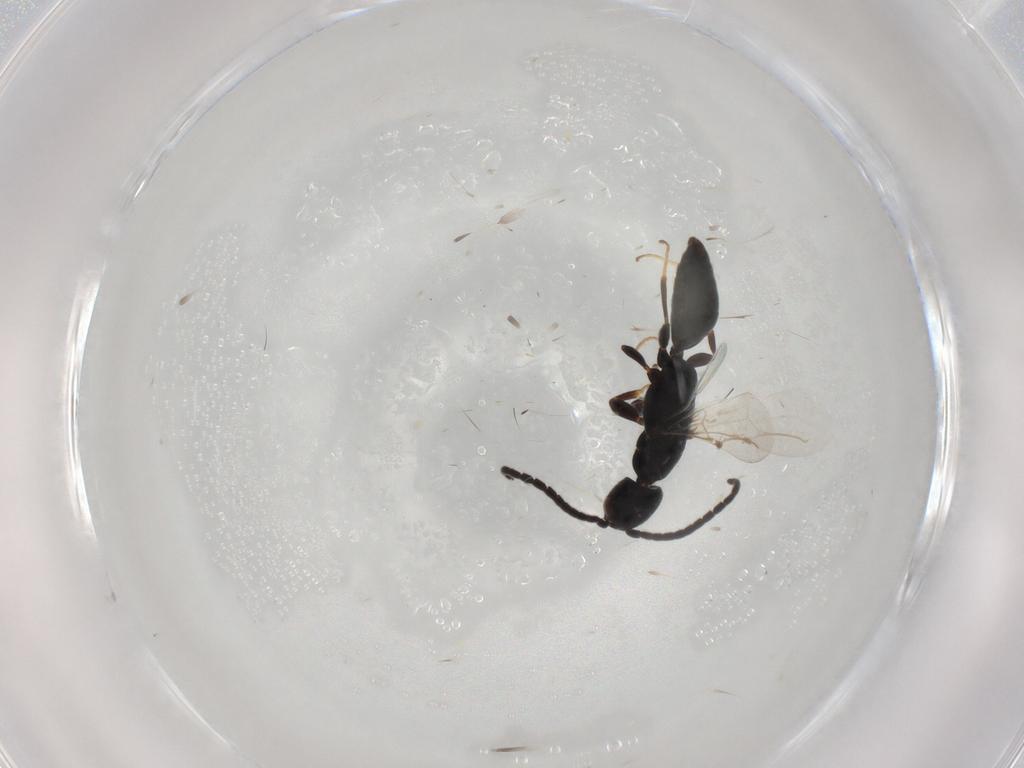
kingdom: Animalia
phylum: Arthropoda
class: Insecta
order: Hymenoptera
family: Bethylidae
